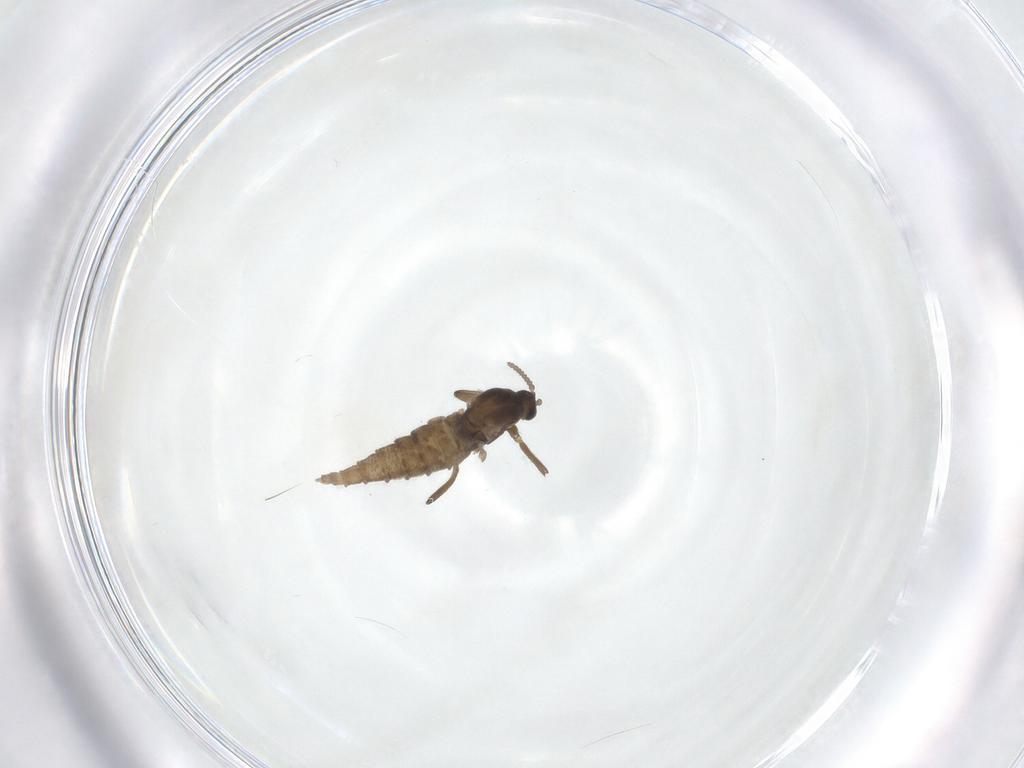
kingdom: Animalia
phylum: Arthropoda
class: Insecta
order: Diptera
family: Cecidomyiidae
